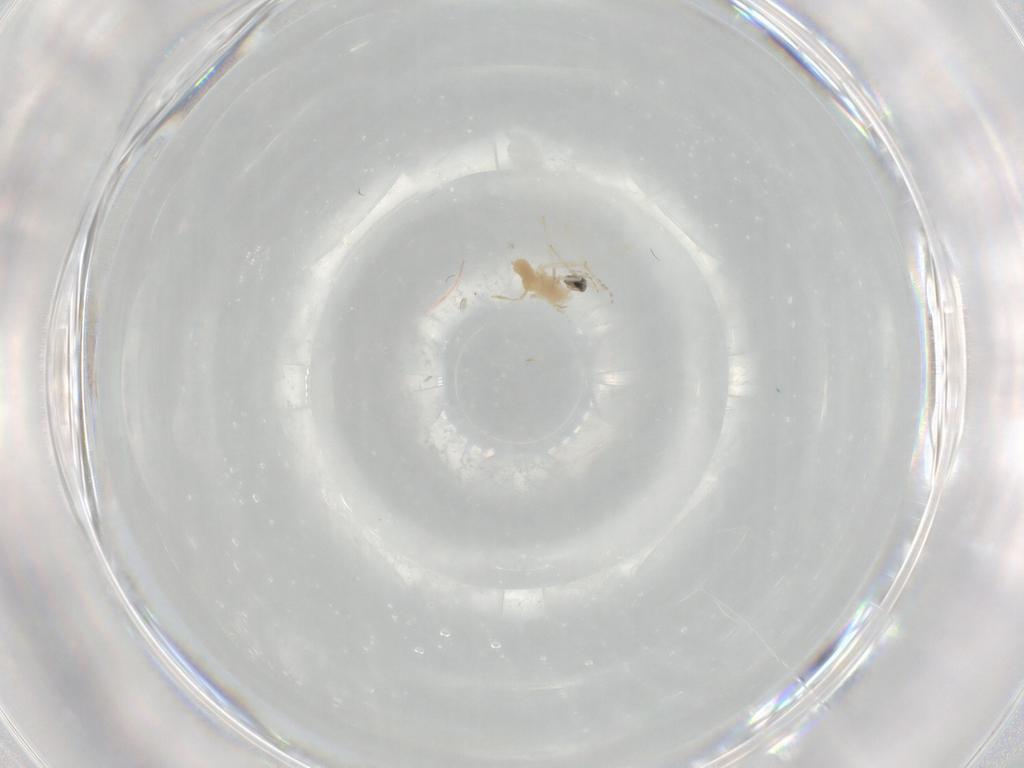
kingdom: Animalia
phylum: Arthropoda
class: Insecta
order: Diptera
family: Cecidomyiidae
